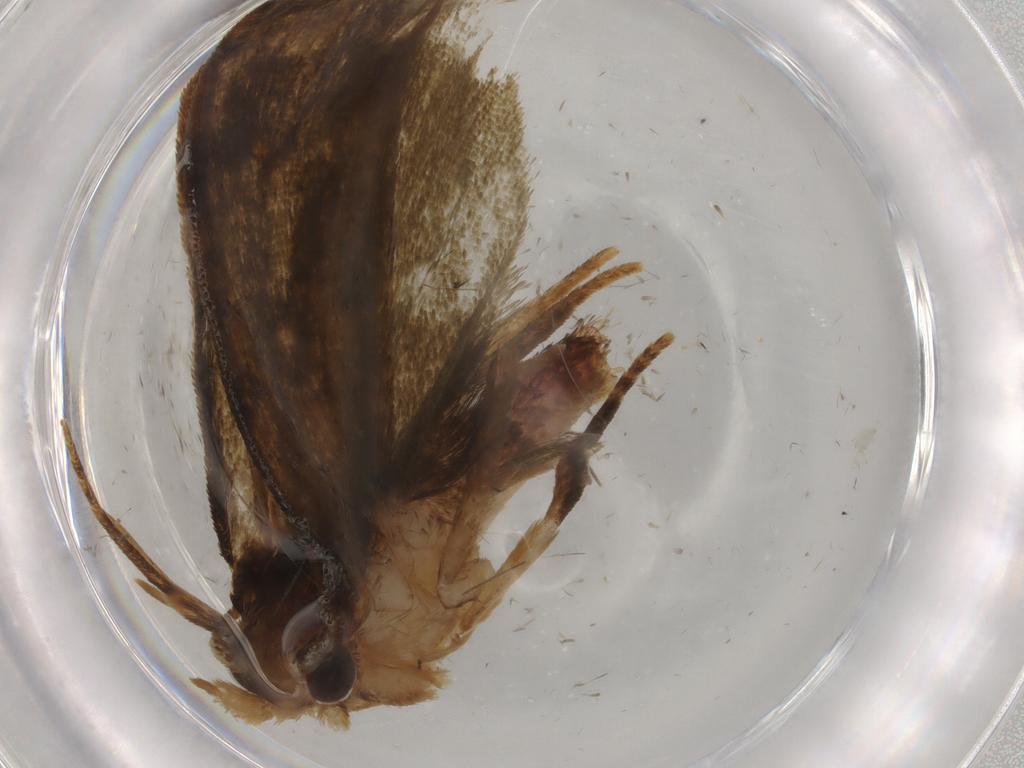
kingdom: Animalia
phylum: Arthropoda
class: Insecta
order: Lepidoptera
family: Geometridae
